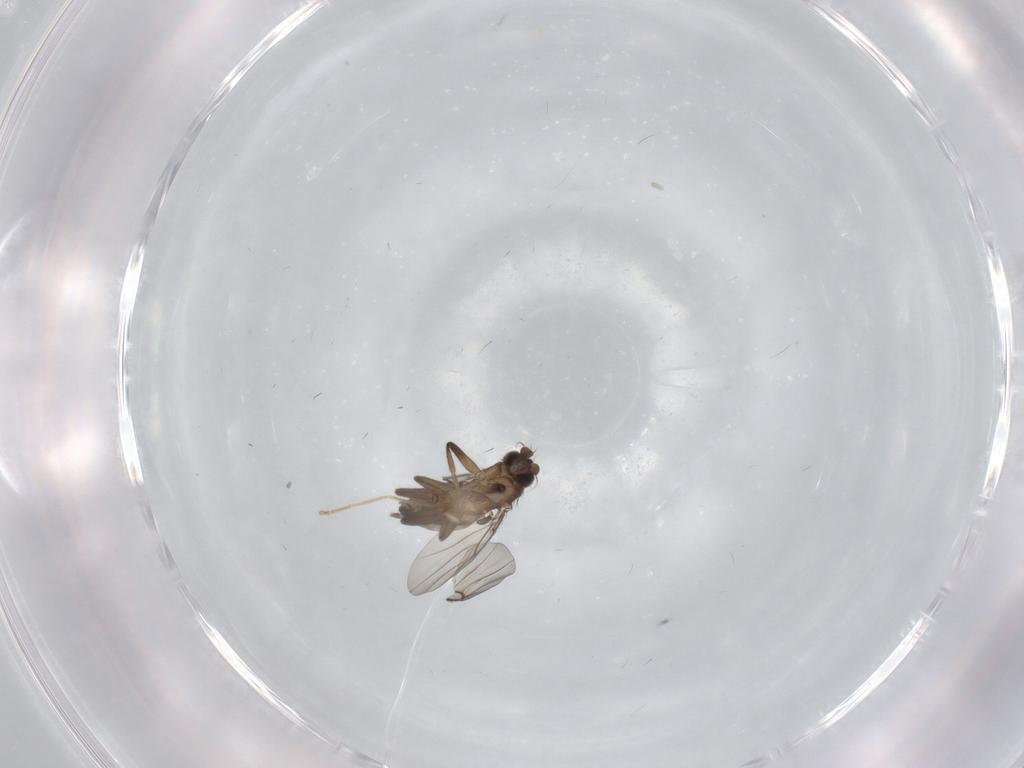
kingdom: Animalia
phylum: Arthropoda
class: Insecta
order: Diptera
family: Phoridae
